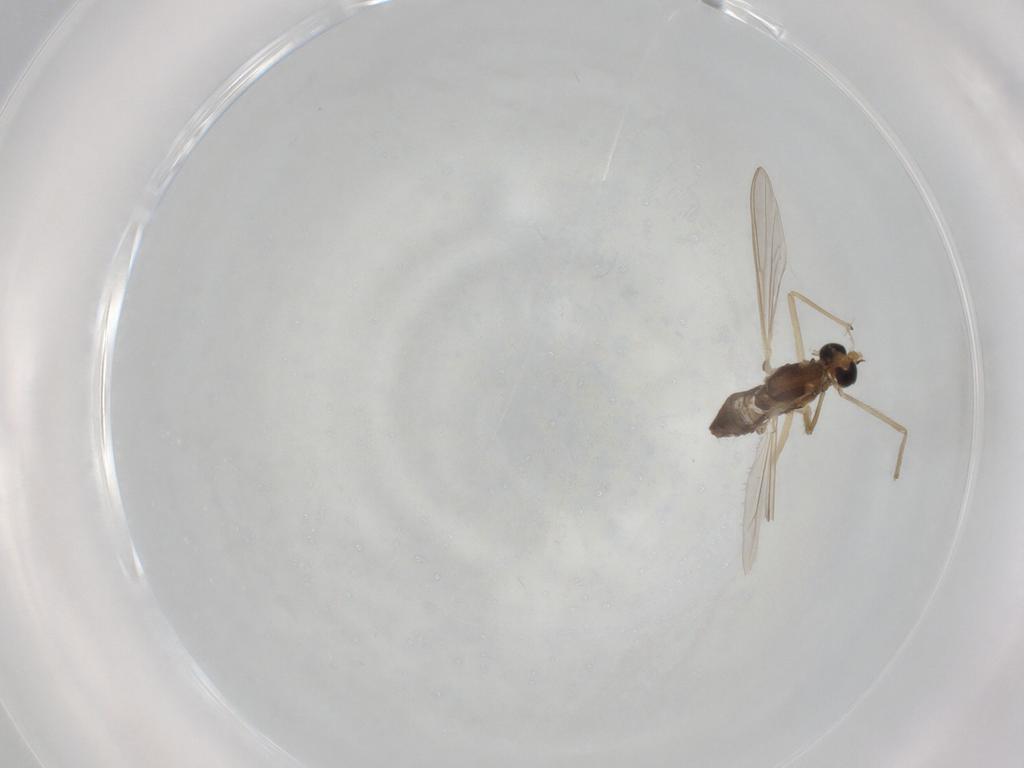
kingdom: Animalia
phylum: Arthropoda
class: Insecta
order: Diptera
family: Chironomidae
